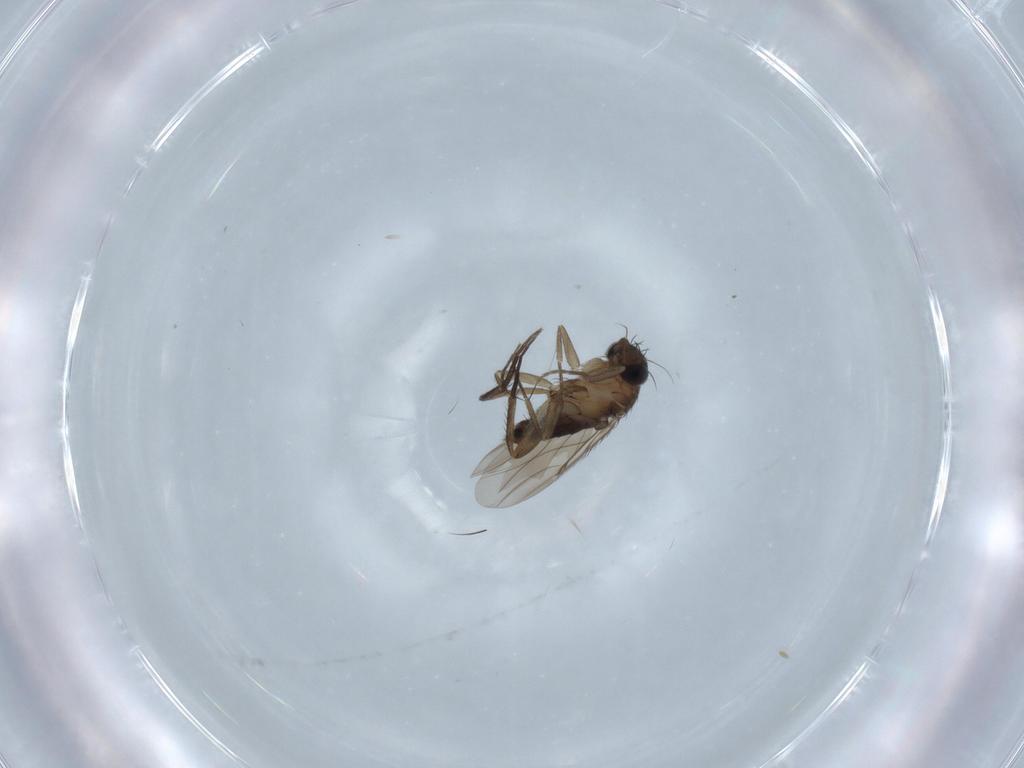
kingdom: Animalia
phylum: Arthropoda
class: Insecta
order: Diptera
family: Phoridae
